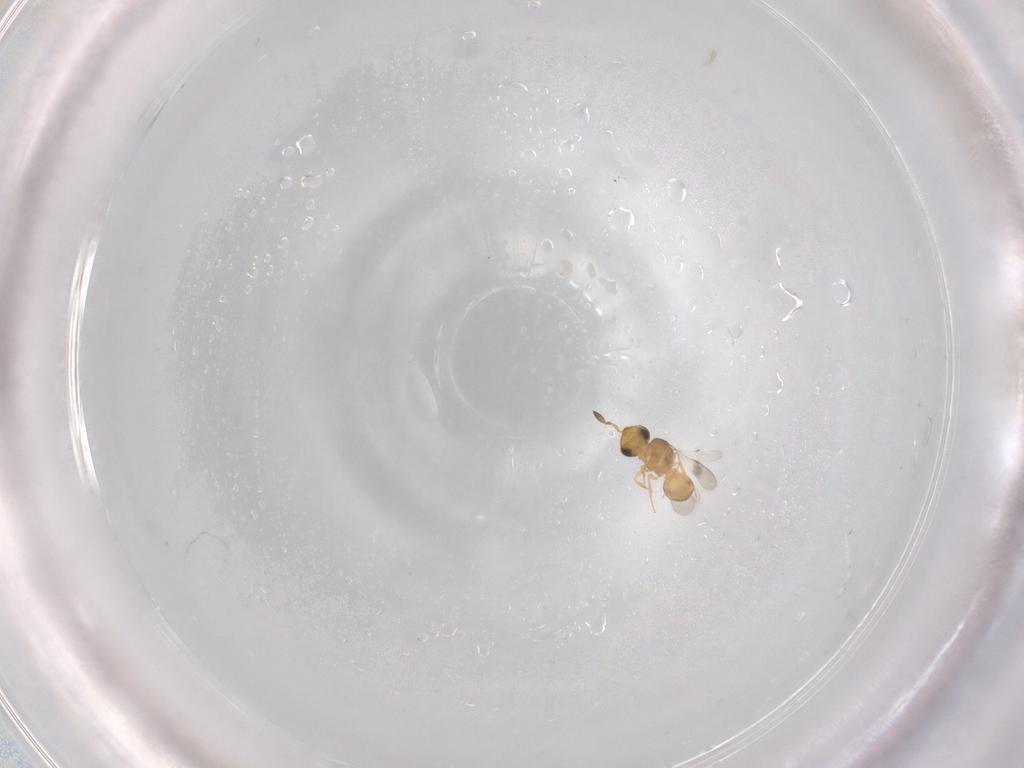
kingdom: Animalia
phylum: Arthropoda
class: Insecta
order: Hymenoptera
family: Scelionidae
